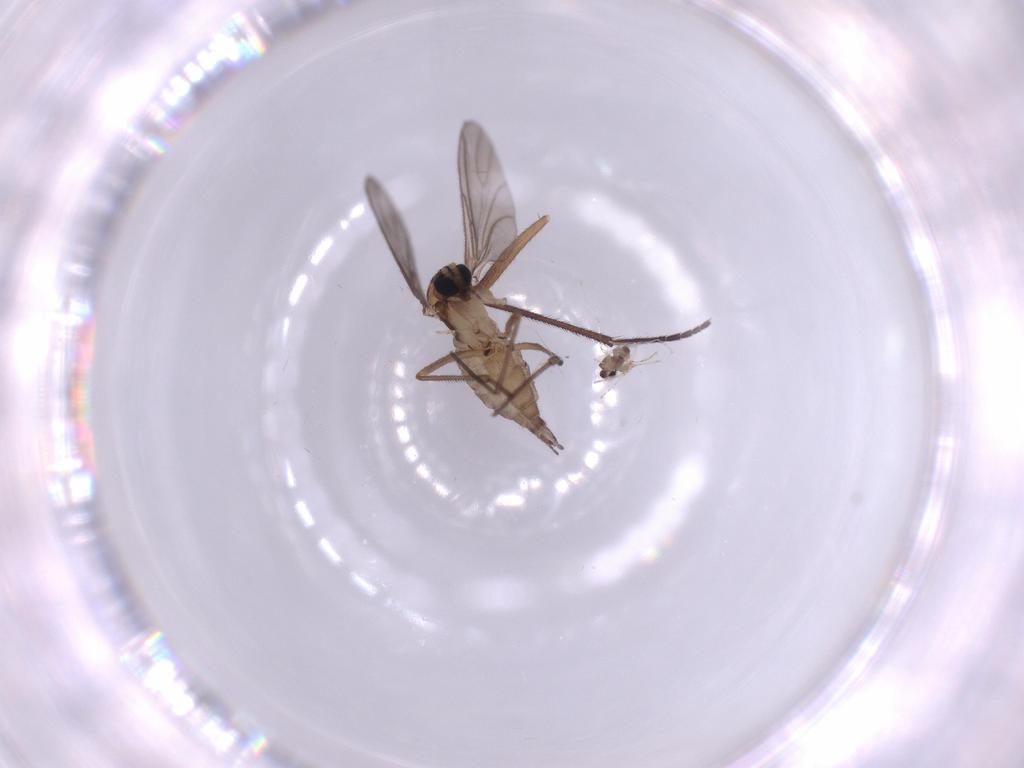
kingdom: Animalia
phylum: Arthropoda
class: Insecta
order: Diptera
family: Sciaridae
